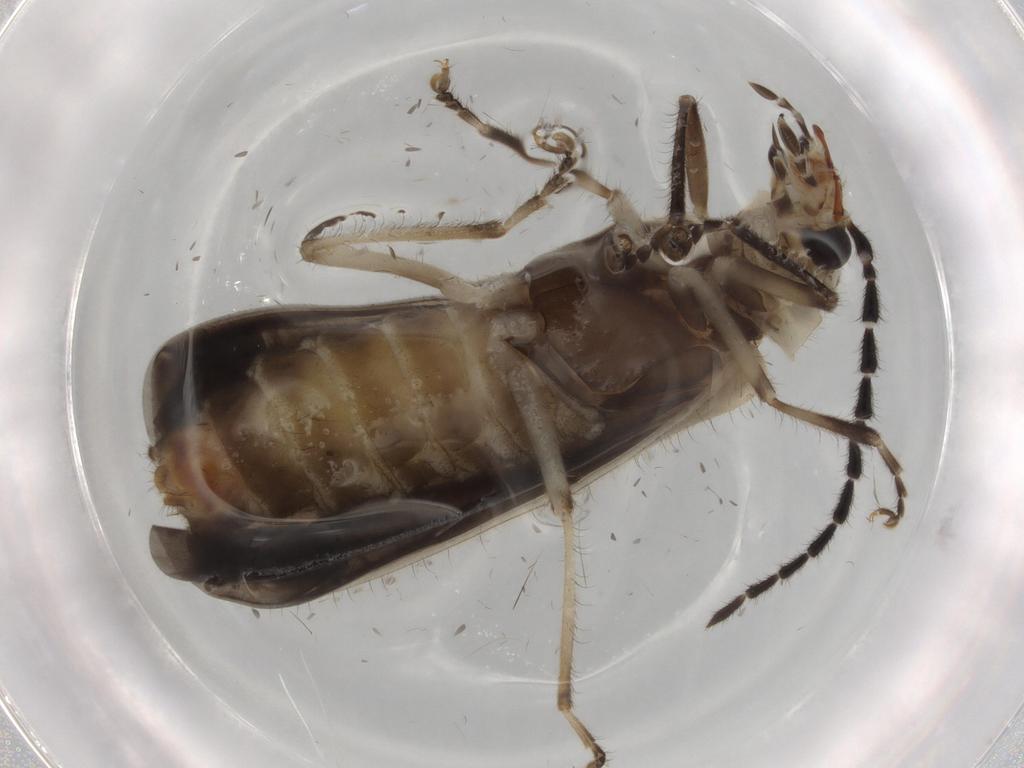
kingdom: Animalia
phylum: Arthropoda
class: Insecta
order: Coleoptera
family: Cantharidae
